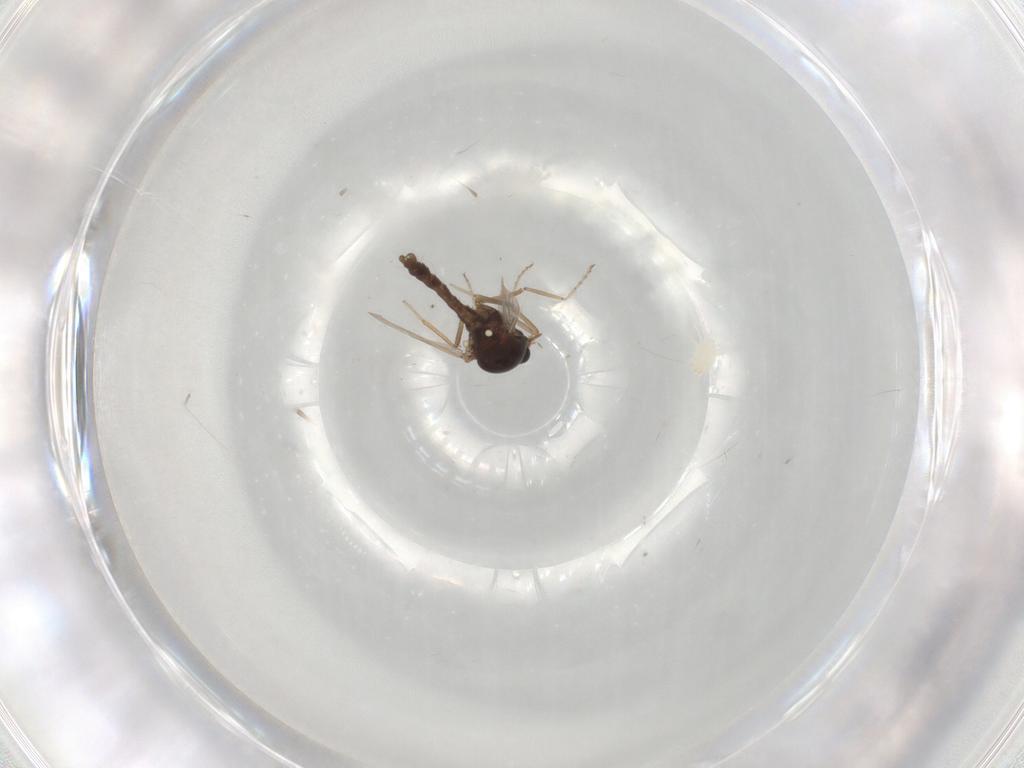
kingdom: Animalia
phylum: Arthropoda
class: Insecta
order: Diptera
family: Ceratopogonidae
